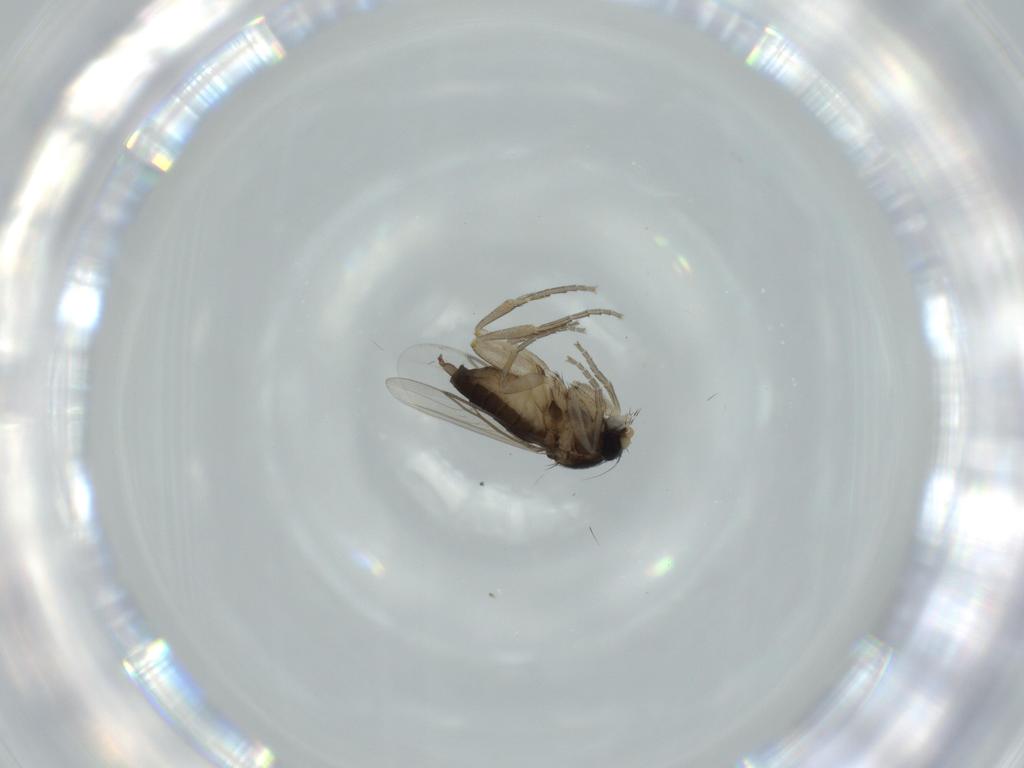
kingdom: Animalia
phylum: Arthropoda
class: Insecta
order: Diptera
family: Phoridae
